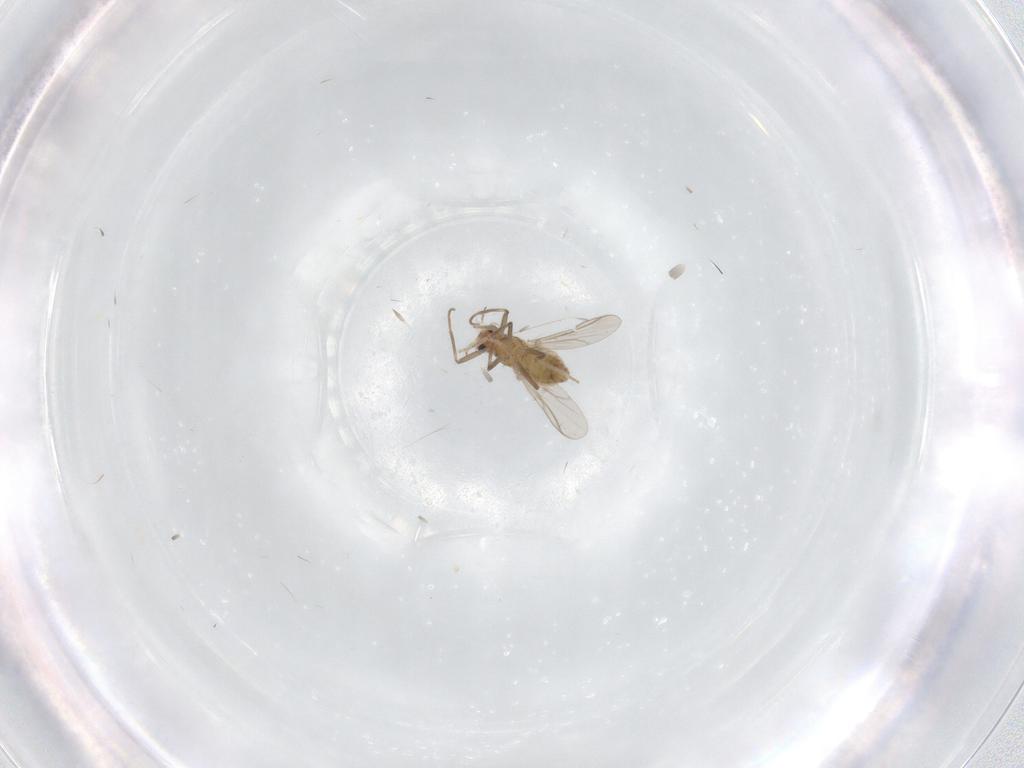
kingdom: Animalia
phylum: Arthropoda
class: Insecta
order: Diptera
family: Chironomidae
